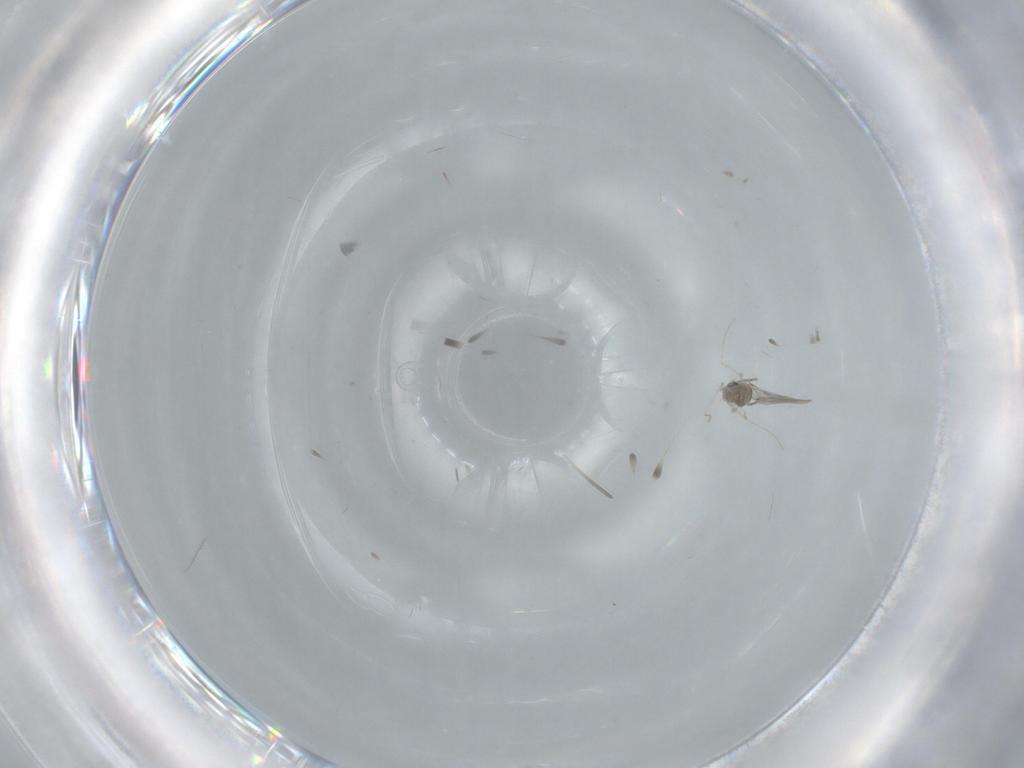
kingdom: Animalia
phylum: Arthropoda
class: Insecta
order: Diptera
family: Cecidomyiidae
